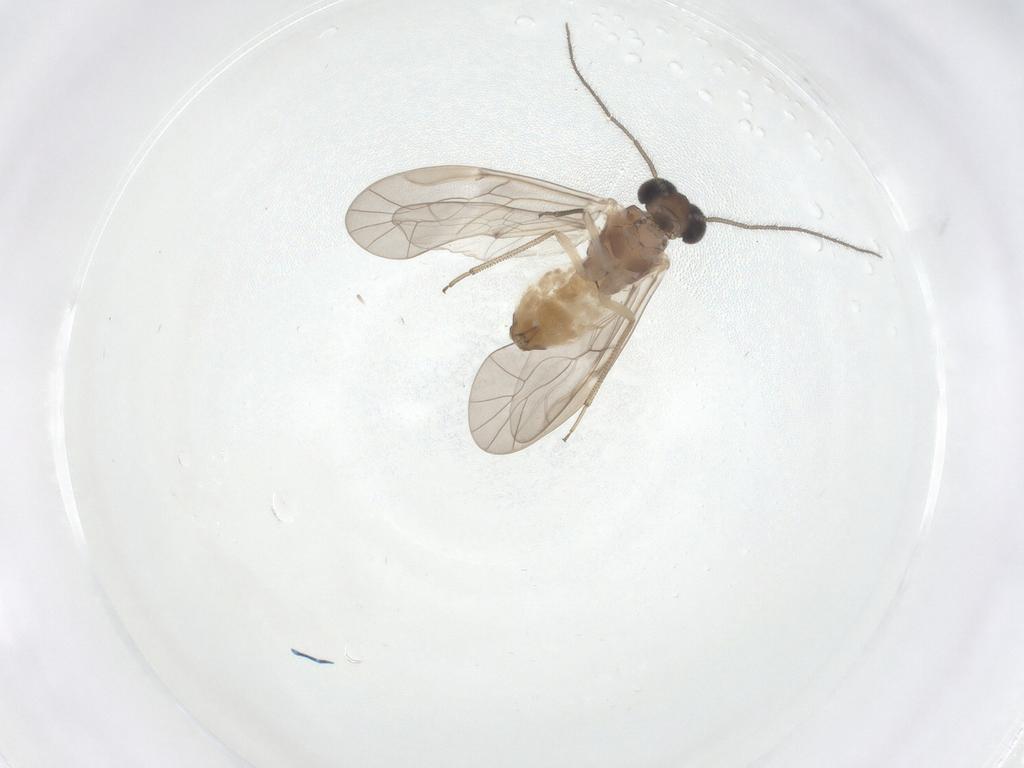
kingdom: Animalia
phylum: Arthropoda
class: Insecta
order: Psocodea
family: Peripsocidae
